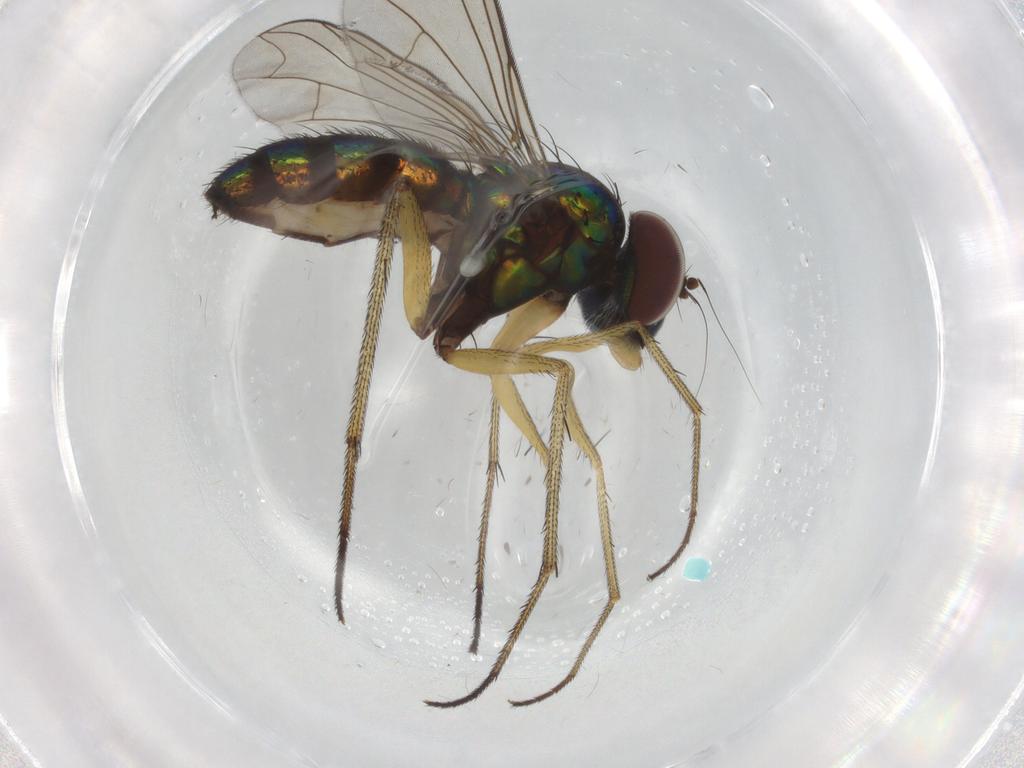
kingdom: Animalia
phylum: Arthropoda
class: Insecta
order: Diptera
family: Dolichopodidae
